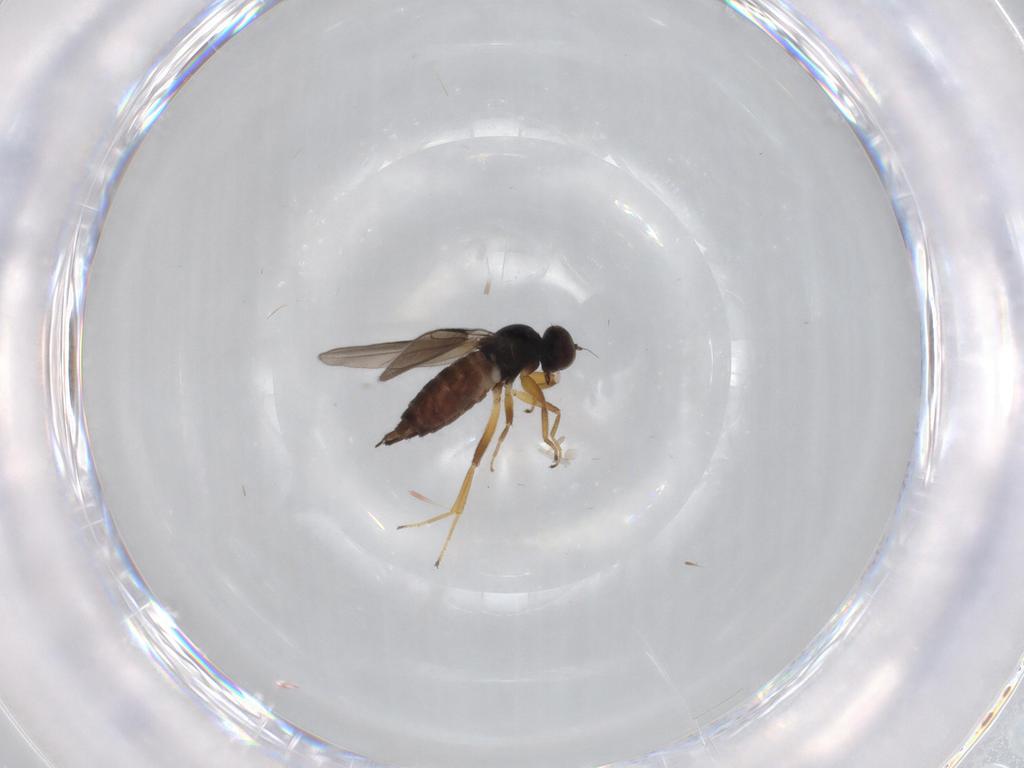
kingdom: Animalia
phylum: Arthropoda
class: Insecta
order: Diptera
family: Hybotidae
